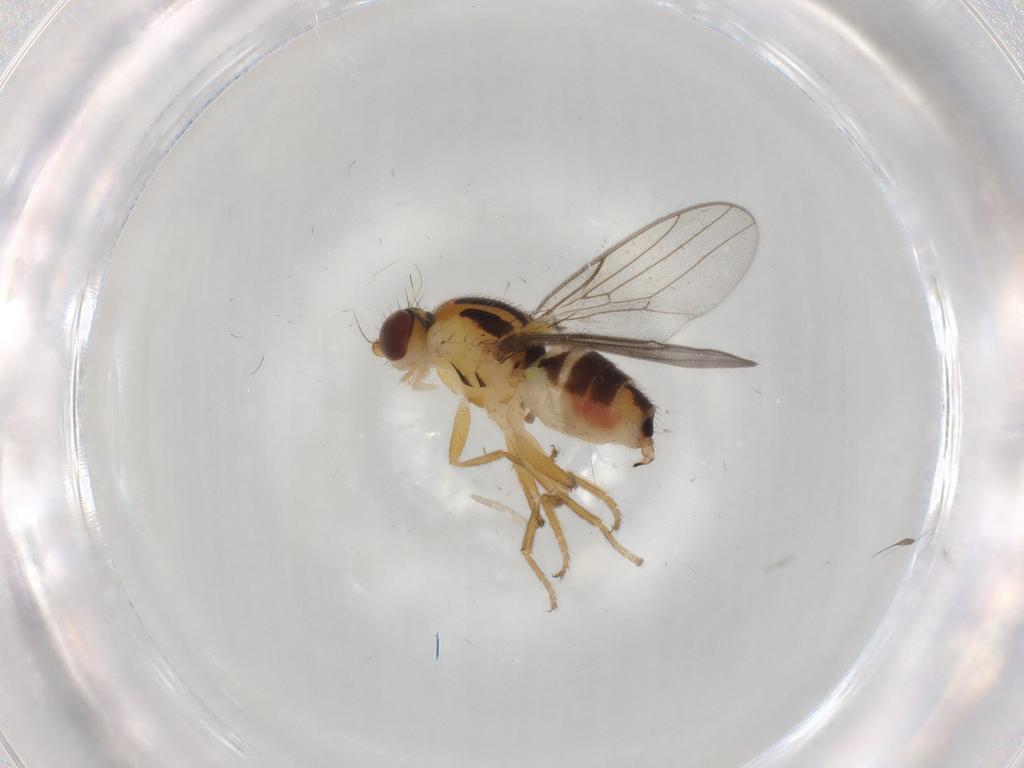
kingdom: Animalia
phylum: Arthropoda
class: Insecta
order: Diptera
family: Chloropidae
